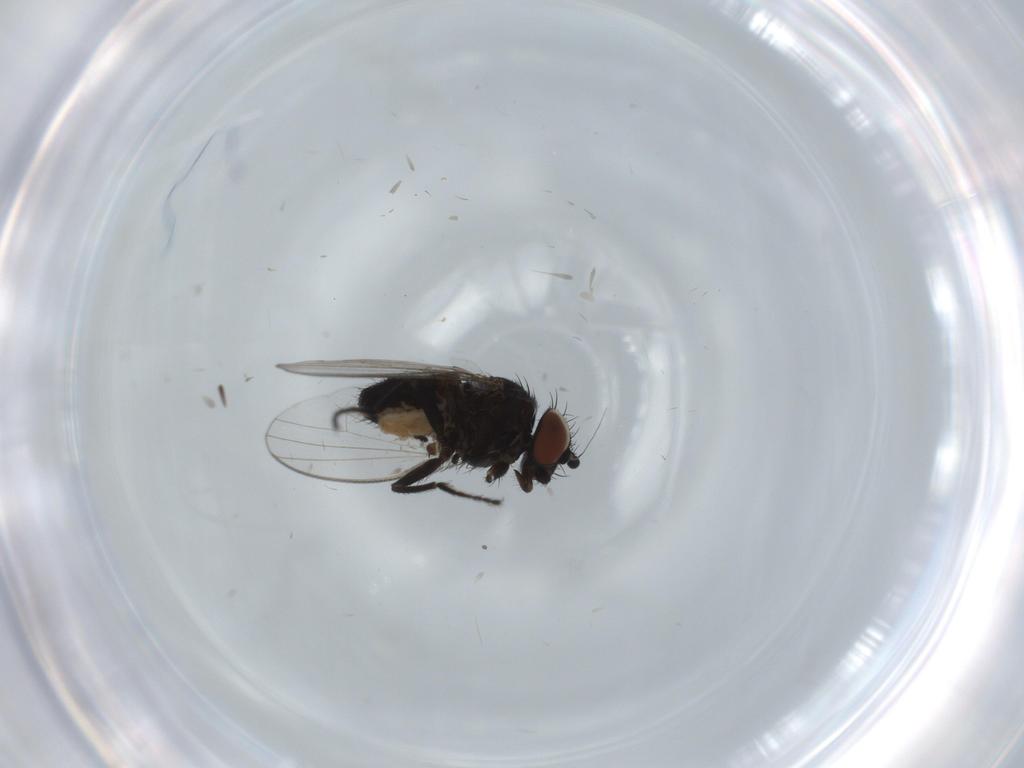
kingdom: Animalia
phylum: Arthropoda
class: Insecta
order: Diptera
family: Milichiidae
